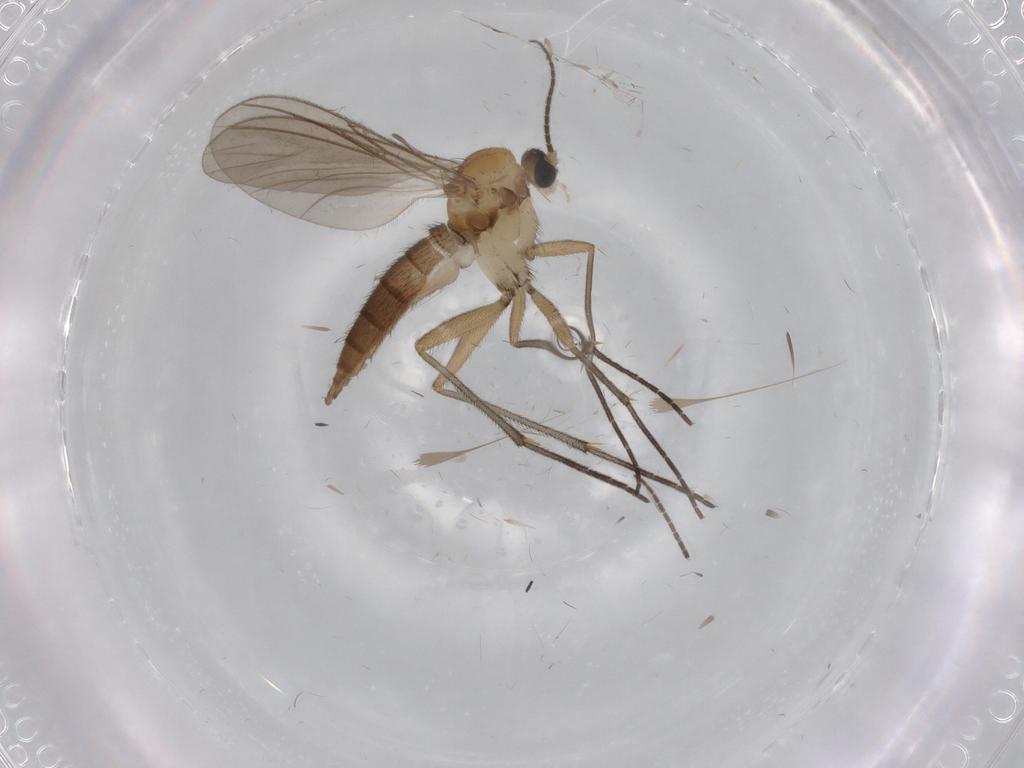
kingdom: Animalia
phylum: Arthropoda
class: Insecta
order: Diptera
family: Sciaridae
